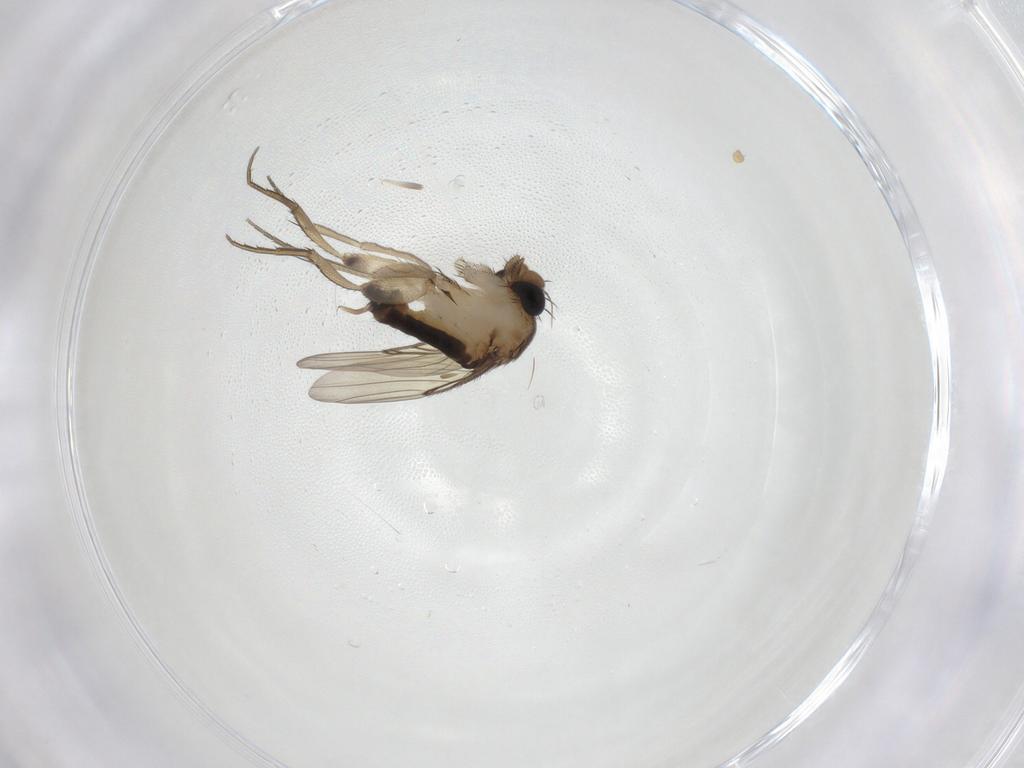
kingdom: Animalia
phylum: Arthropoda
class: Insecta
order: Diptera
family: Phoridae
